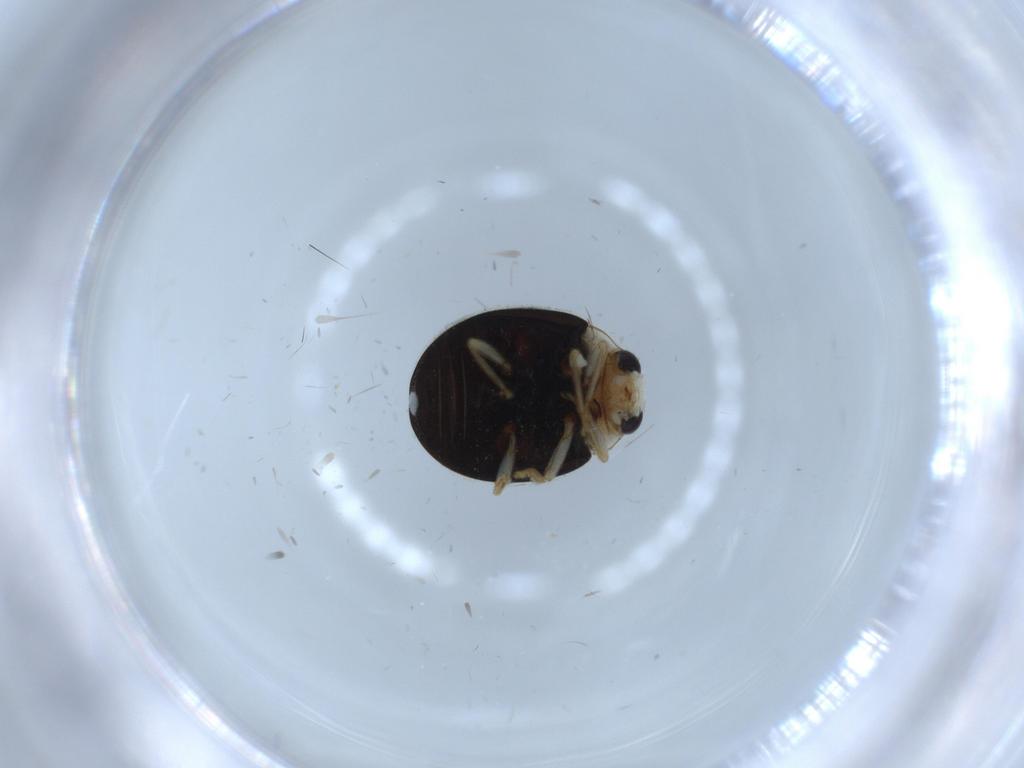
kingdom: Animalia
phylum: Arthropoda
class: Insecta
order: Coleoptera
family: Coccinellidae
